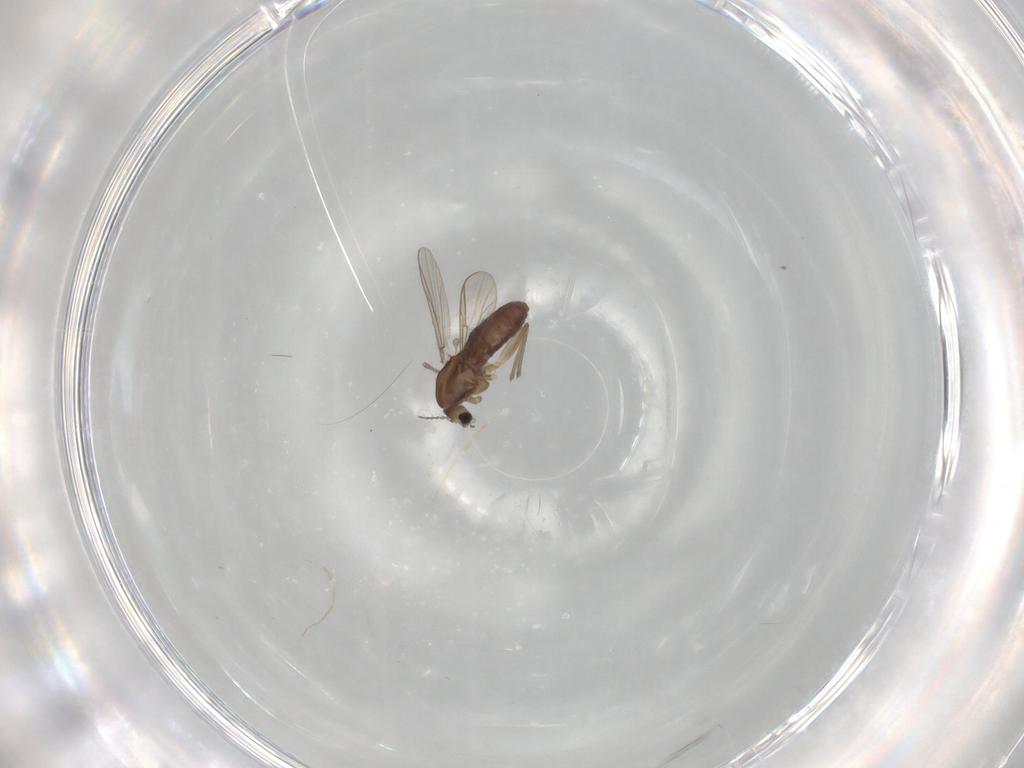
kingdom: Animalia
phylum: Arthropoda
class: Insecta
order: Diptera
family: Chironomidae
